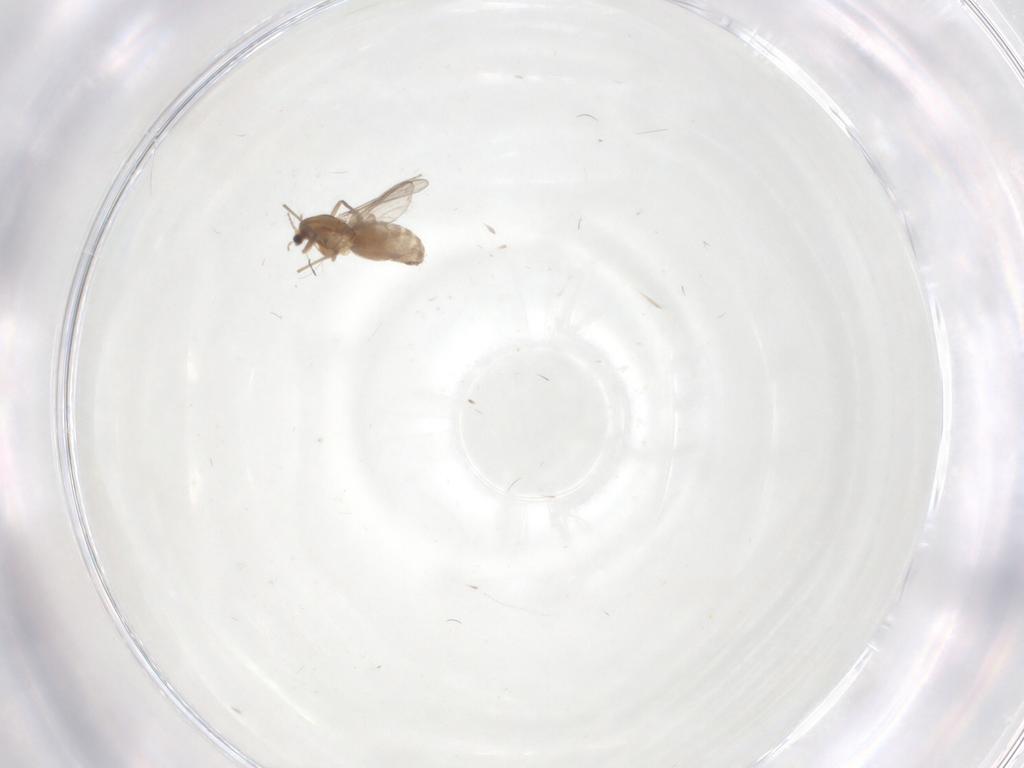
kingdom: Animalia
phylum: Arthropoda
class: Insecta
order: Diptera
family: Chironomidae
